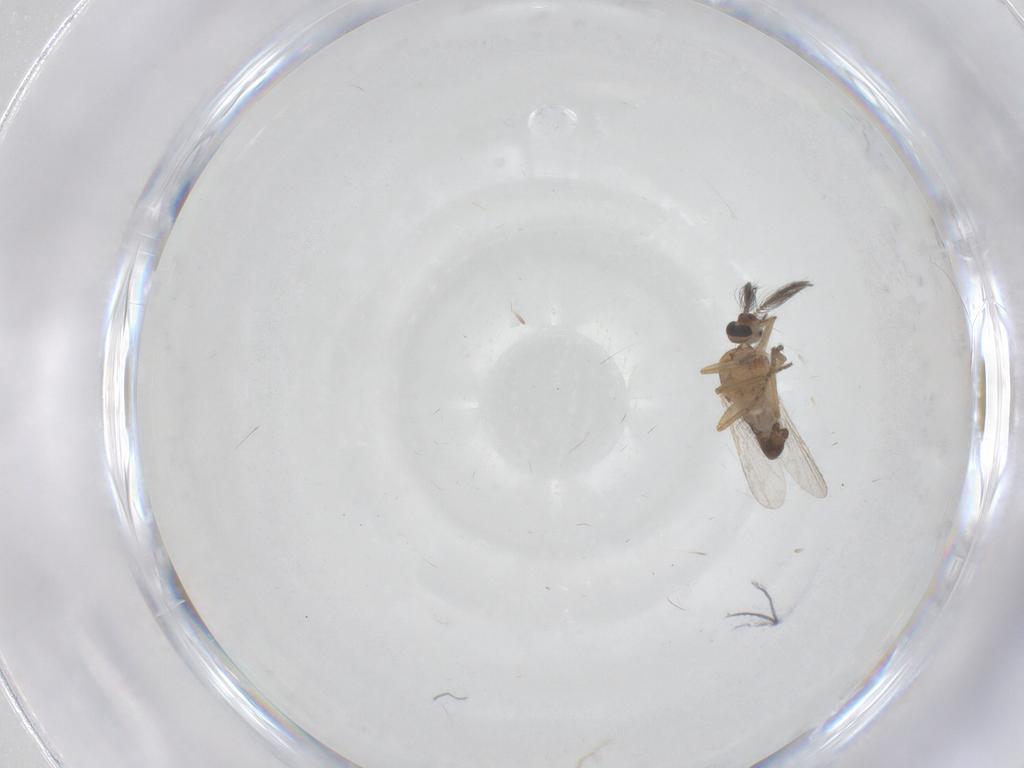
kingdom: Animalia
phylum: Arthropoda
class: Insecta
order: Diptera
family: Ceratopogonidae
